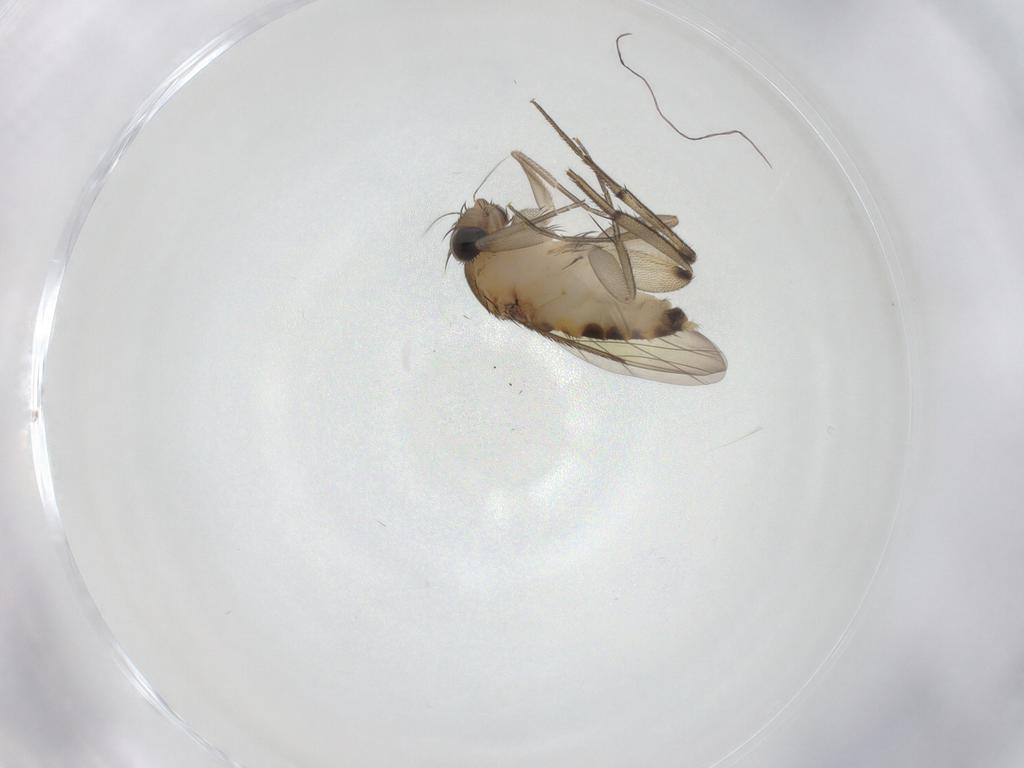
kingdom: Animalia
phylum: Arthropoda
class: Insecta
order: Diptera
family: Phoridae
